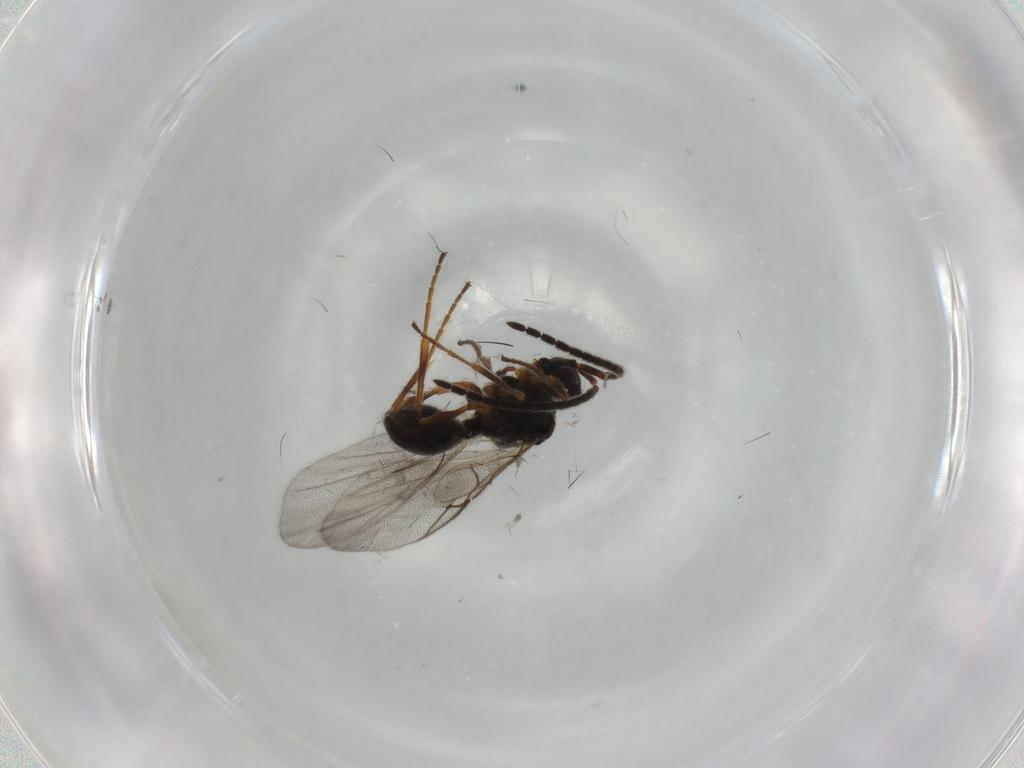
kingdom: Animalia
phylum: Arthropoda
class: Insecta
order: Hymenoptera
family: Diapriidae
